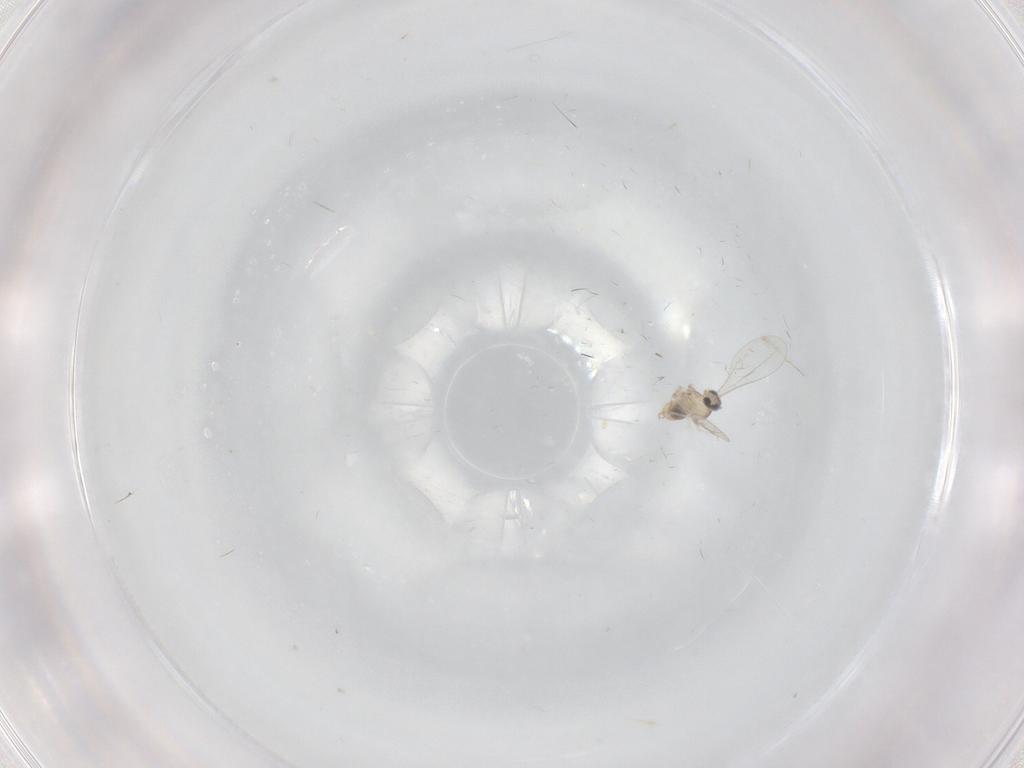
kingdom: Animalia
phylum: Arthropoda
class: Insecta
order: Diptera
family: Cecidomyiidae
